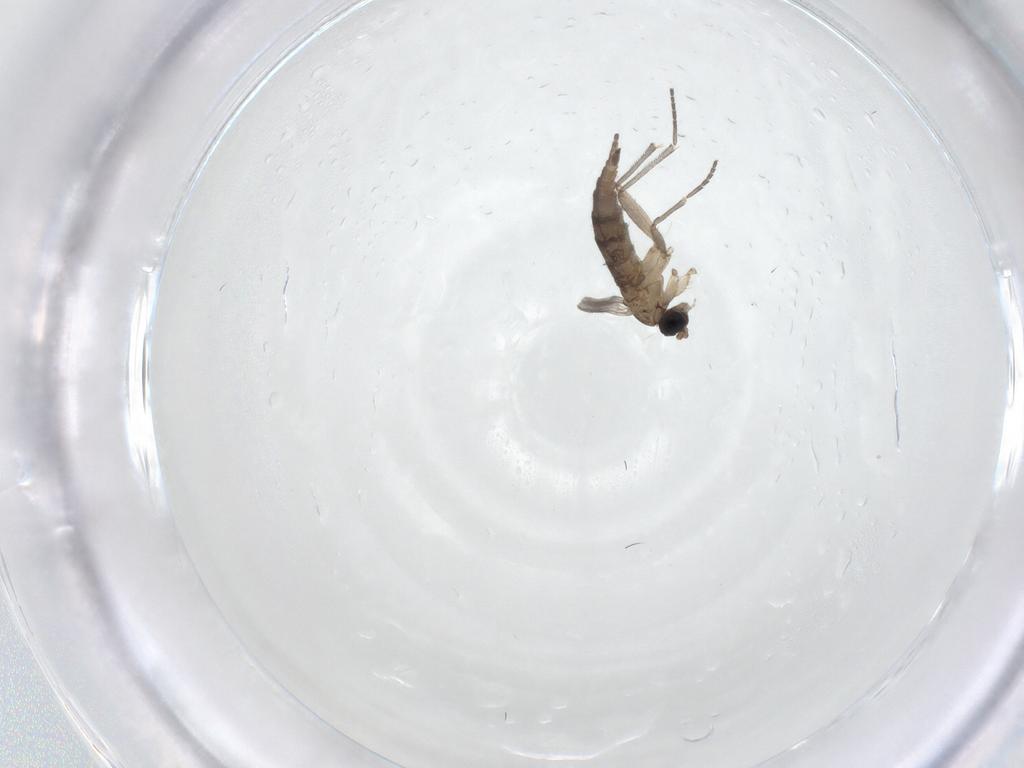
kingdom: Animalia
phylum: Arthropoda
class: Insecta
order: Diptera
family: Sciaridae
